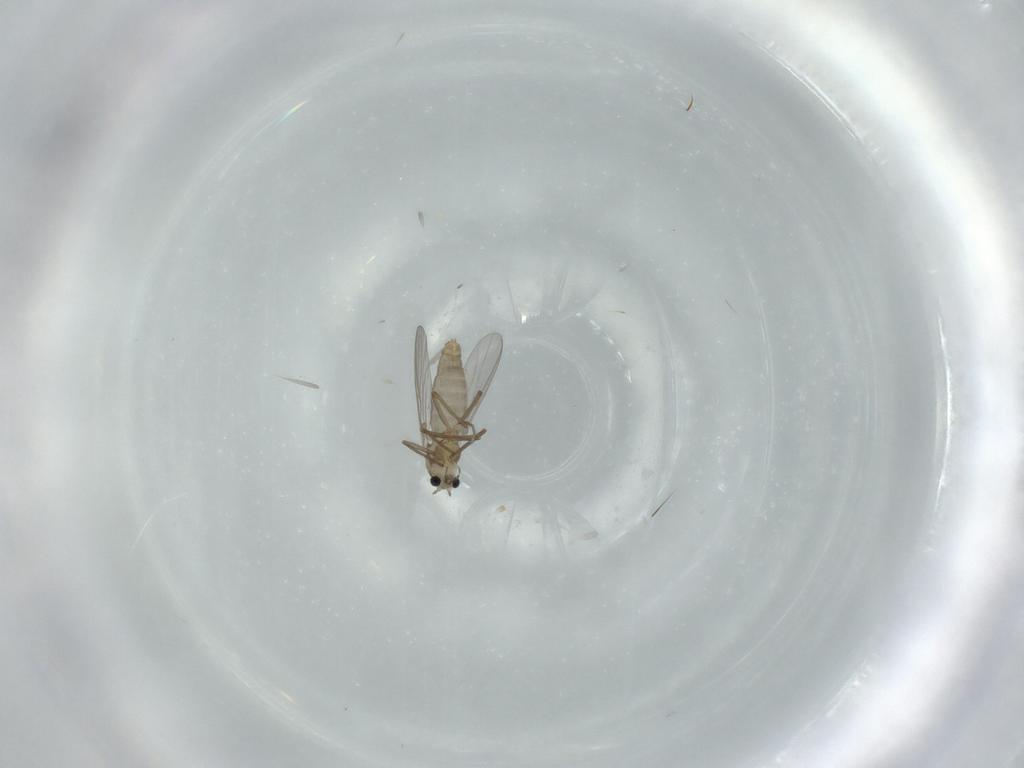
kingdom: Animalia
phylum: Arthropoda
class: Insecta
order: Diptera
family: Chironomidae
